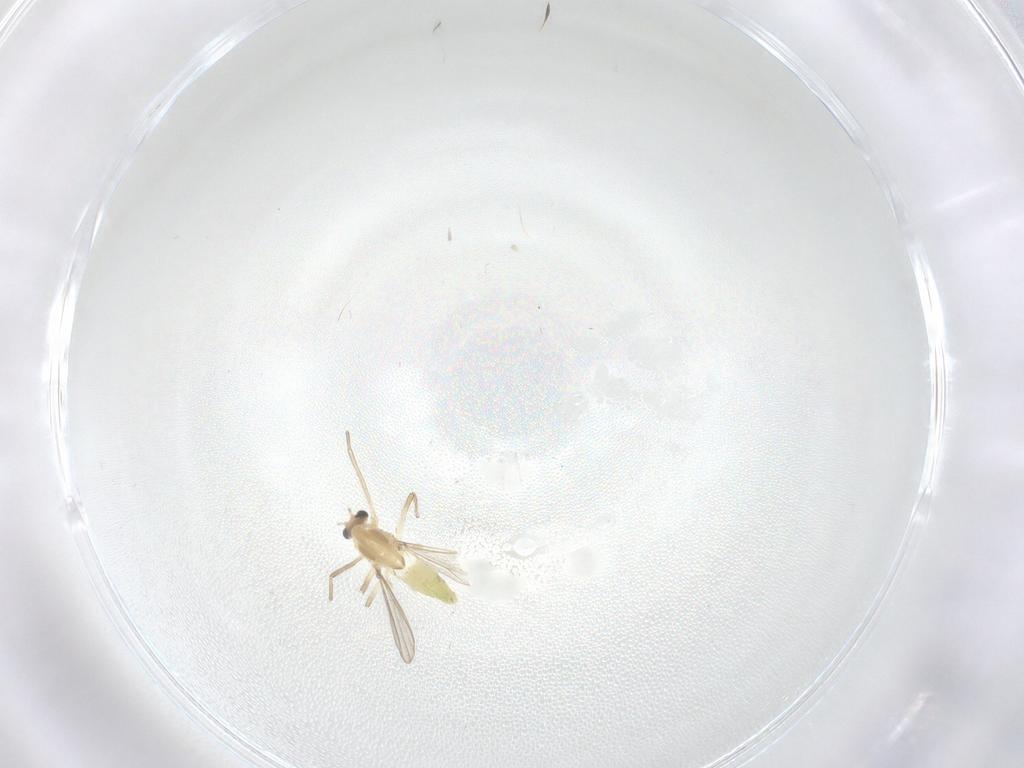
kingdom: Animalia
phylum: Arthropoda
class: Insecta
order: Diptera
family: Chironomidae
